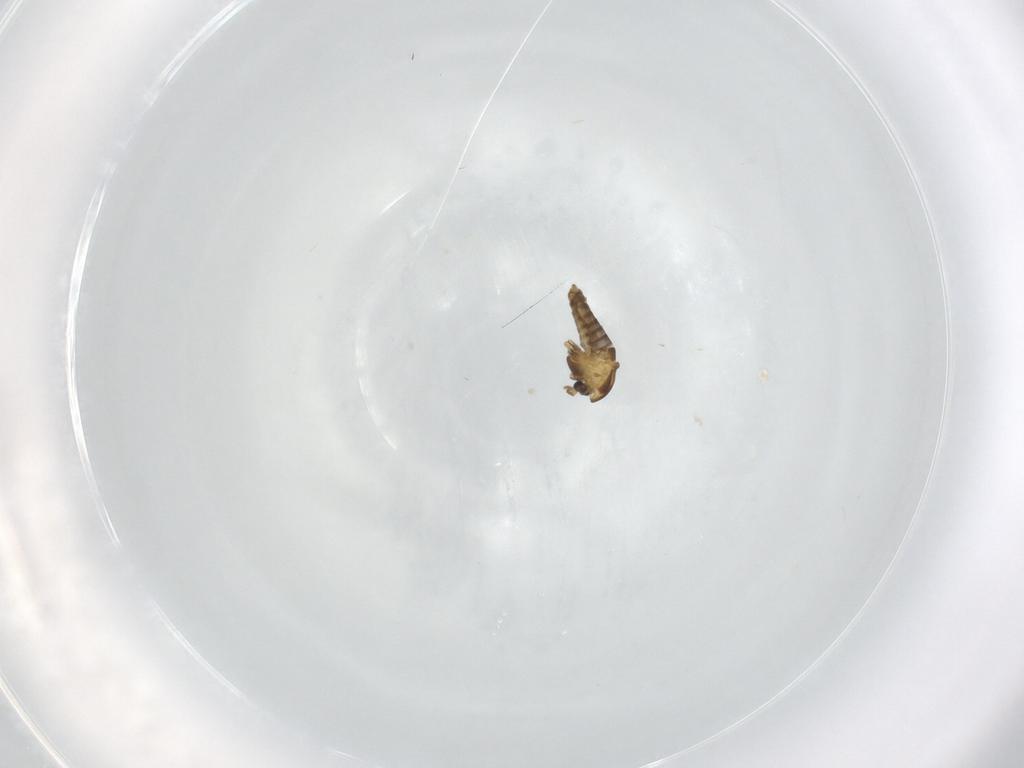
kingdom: Animalia
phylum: Arthropoda
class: Insecta
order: Diptera
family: Chironomidae
